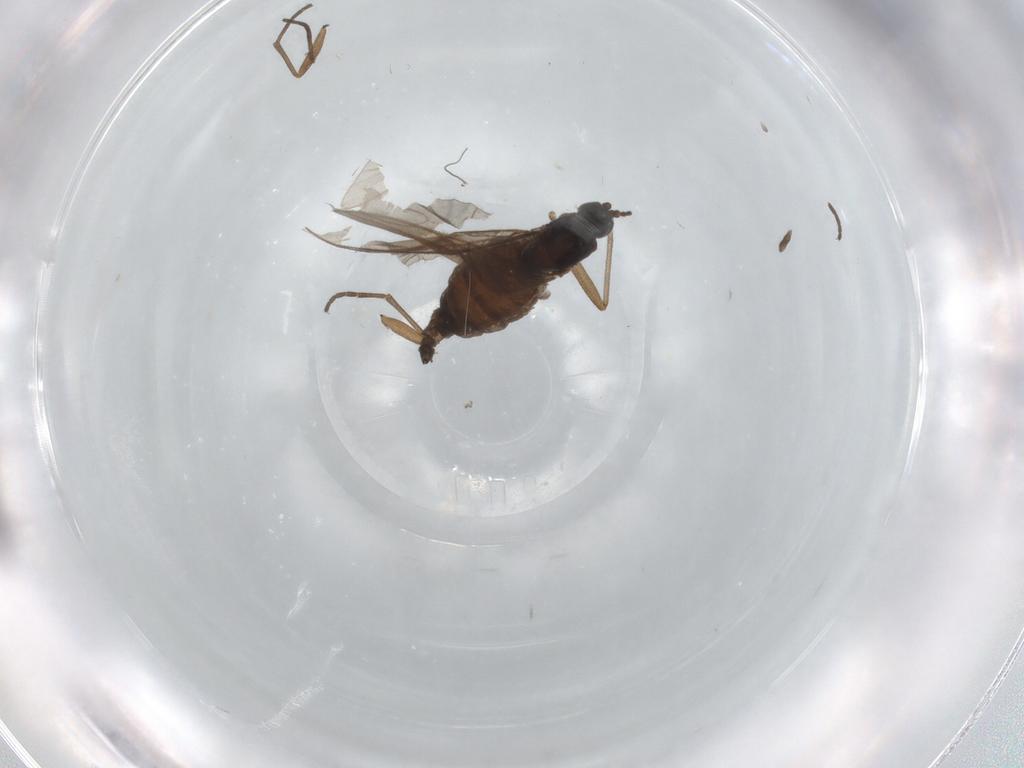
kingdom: Animalia
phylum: Arthropoda
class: Insecta
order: Diptera
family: Sciaridae
